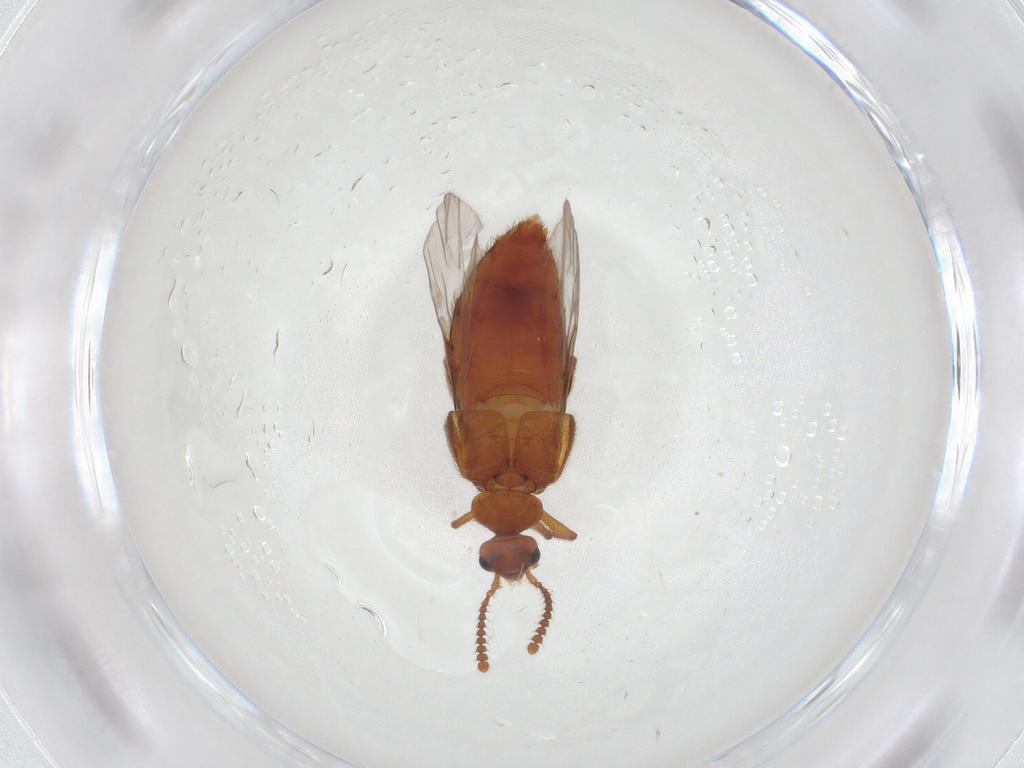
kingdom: Animalia
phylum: Arthropoda
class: Insecta
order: Coleoptera
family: Staphylinidae
